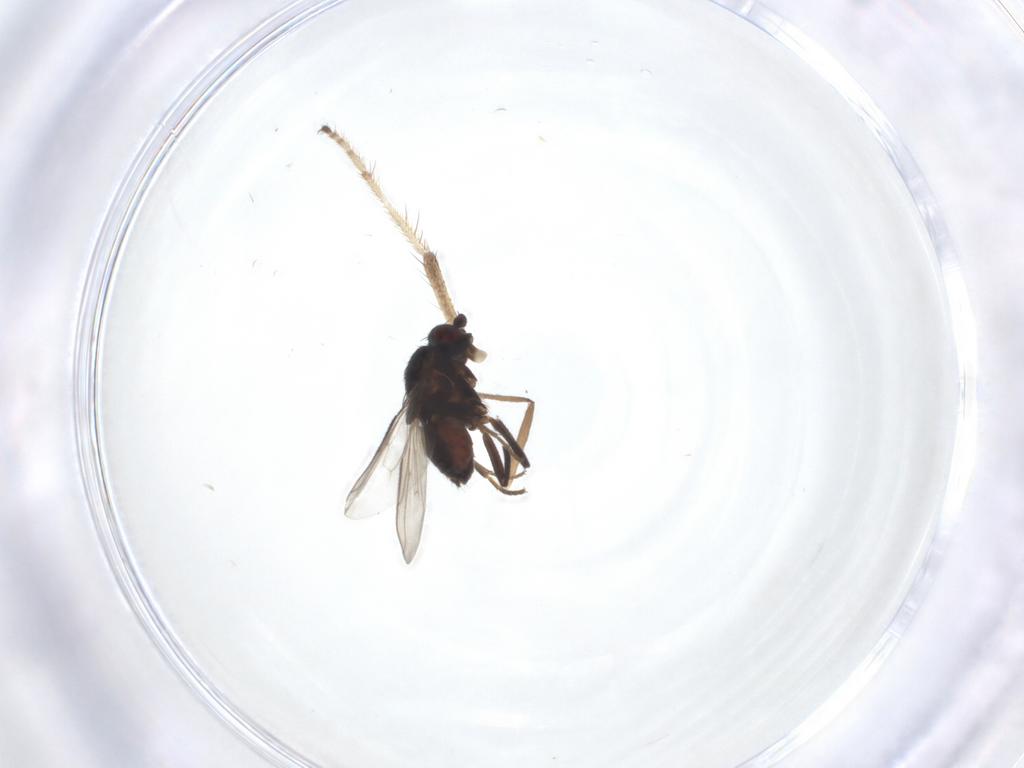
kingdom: Animalia
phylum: Arthropoda
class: Insecta
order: Diptera
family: Sphaeroceridae
